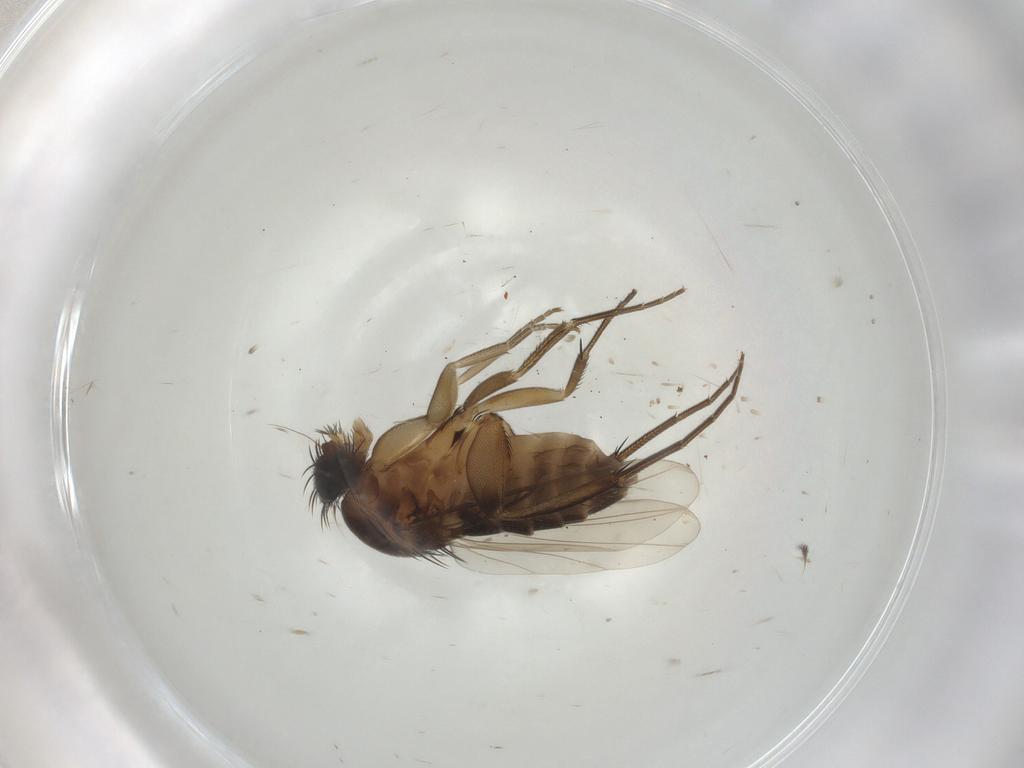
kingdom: Animalia
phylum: Arthropoda
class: Insecta
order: Diptera
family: Phoridae
